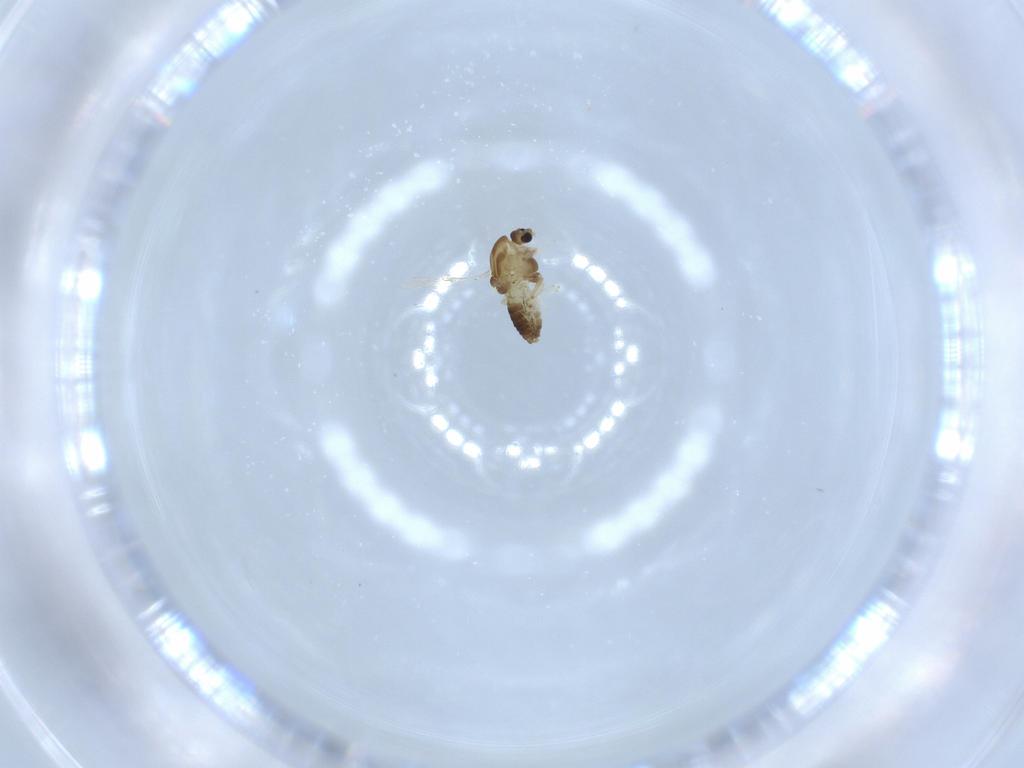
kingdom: Animalia
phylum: Arthropoda
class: Insecta
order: Diptera
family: Chironomidae
